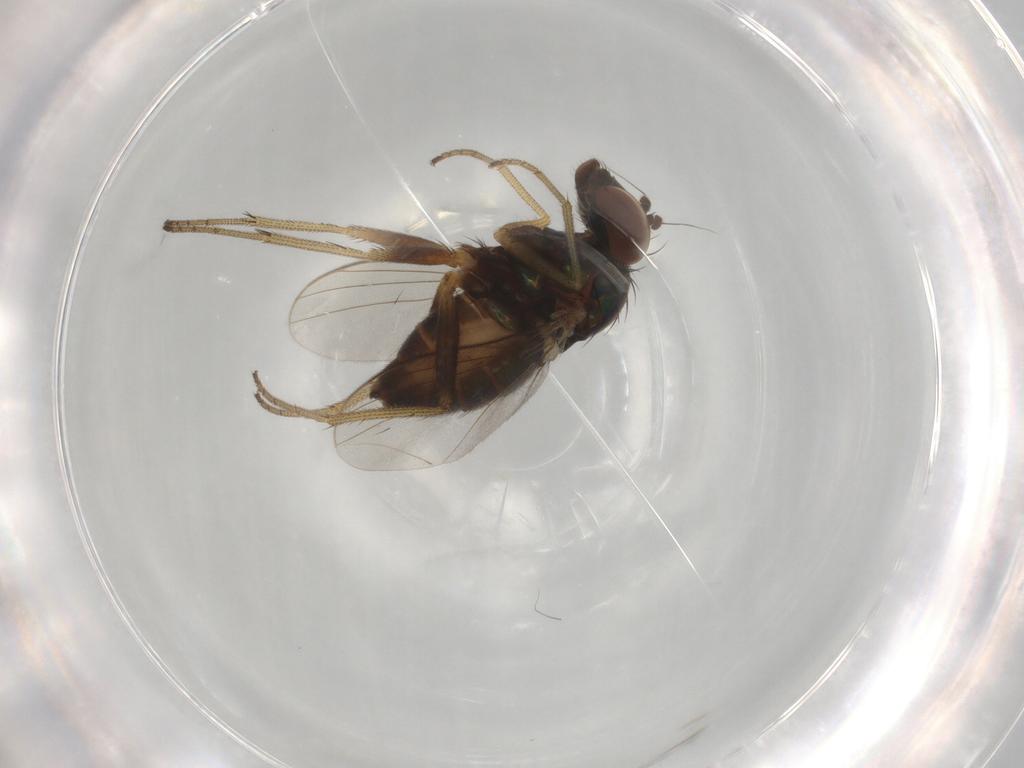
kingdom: Animalia
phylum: Arthropoda
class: Insecta
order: Diptera
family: Dolichopodidae
